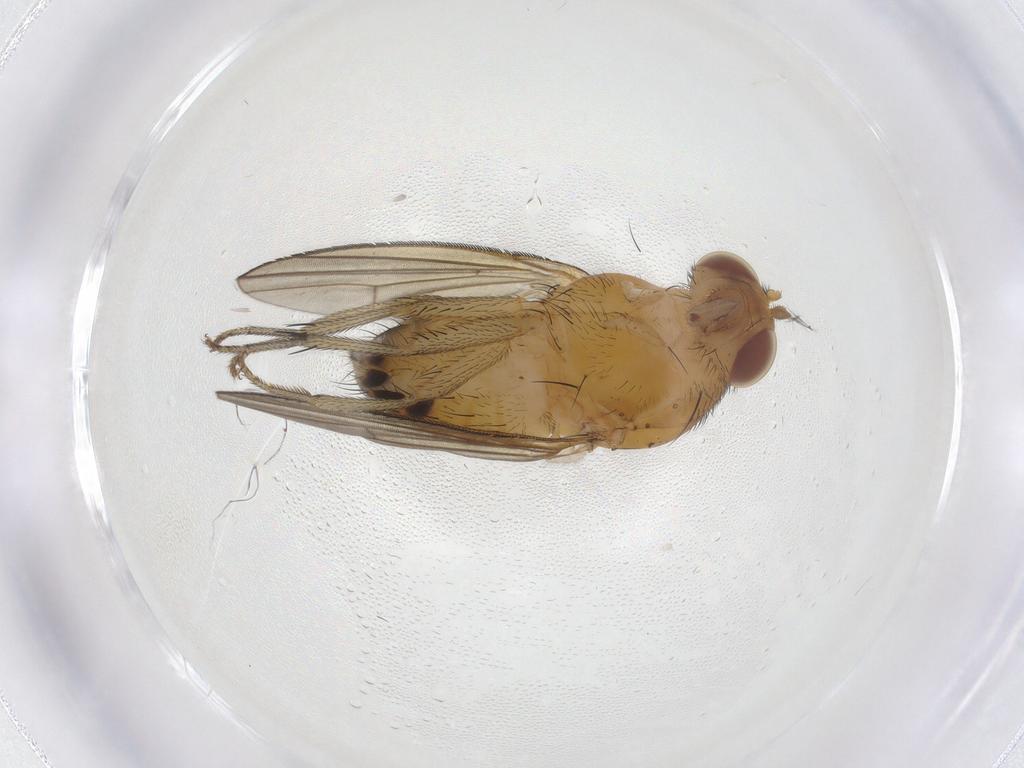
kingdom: Animalia
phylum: Arthropoda
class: Insecta
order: Diptera
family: Lauxaniidae
